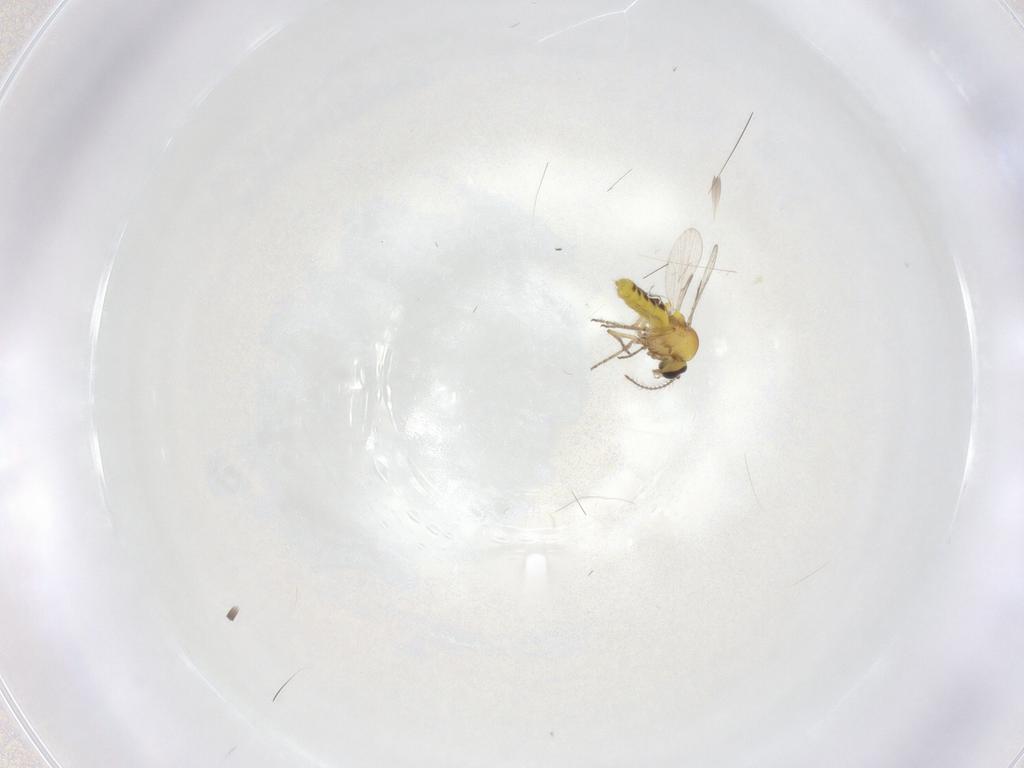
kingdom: Animalia
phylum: Arthropoda
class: Insecta
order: Diptera
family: Ceratopogonidae
